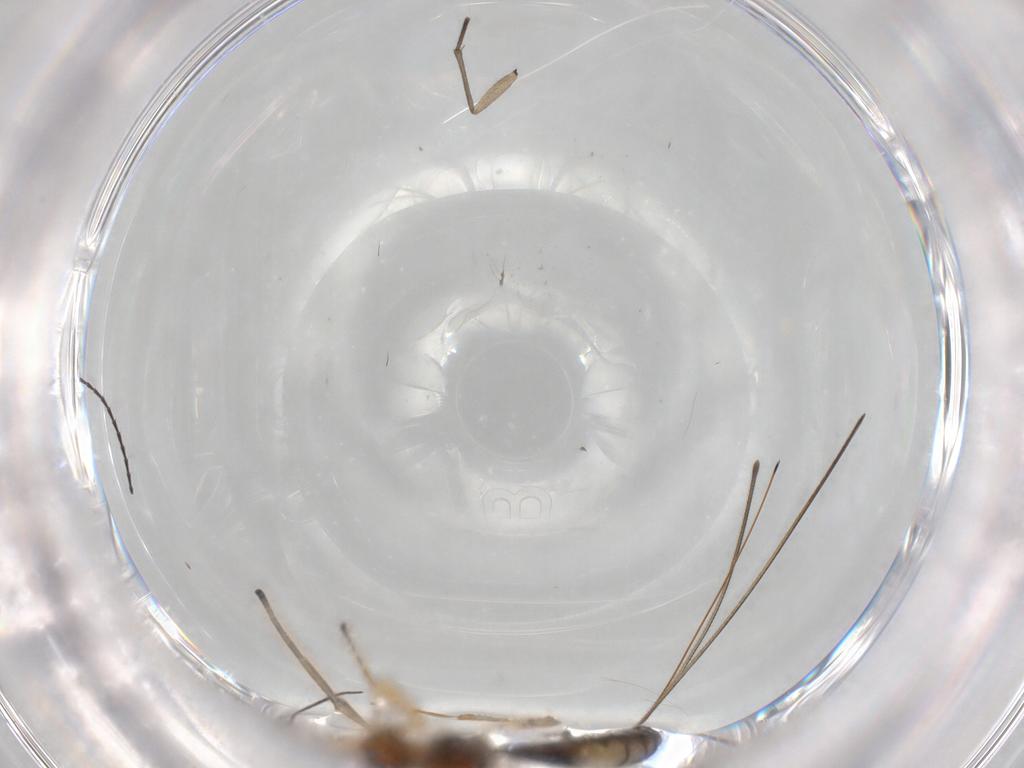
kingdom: Animalia
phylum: Arthropoda
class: Insecta
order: Hymenoptera
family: Braconidae
